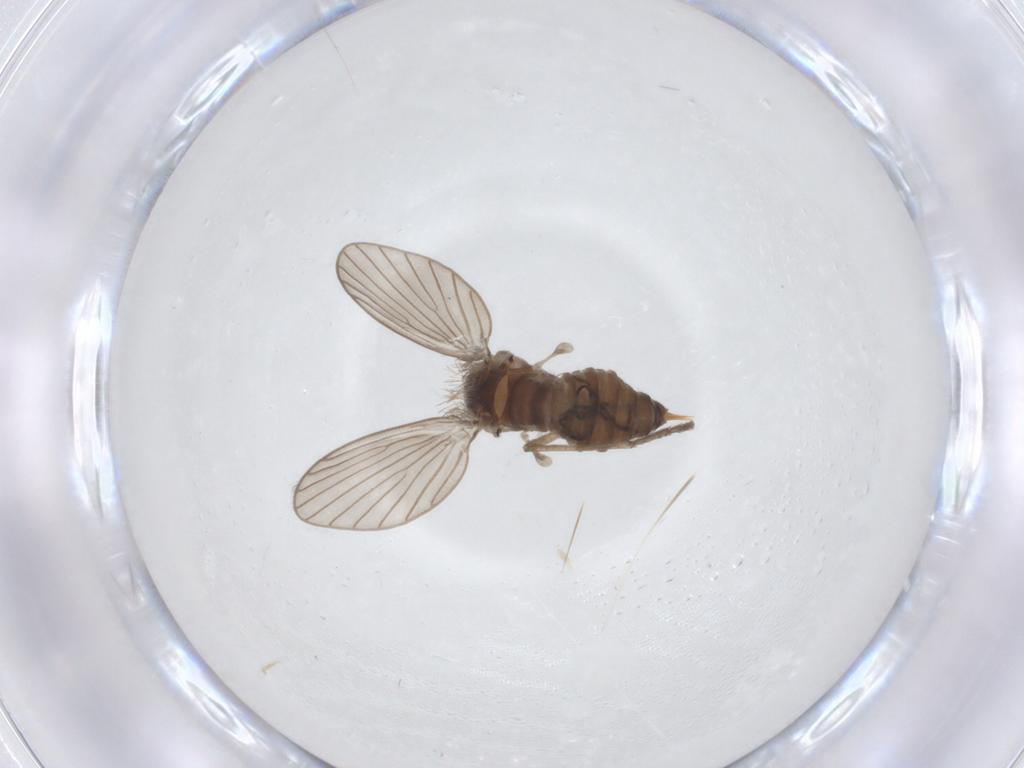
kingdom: Animalia
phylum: Arthropoda
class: Insecta
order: Diptera
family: Psychodidae
